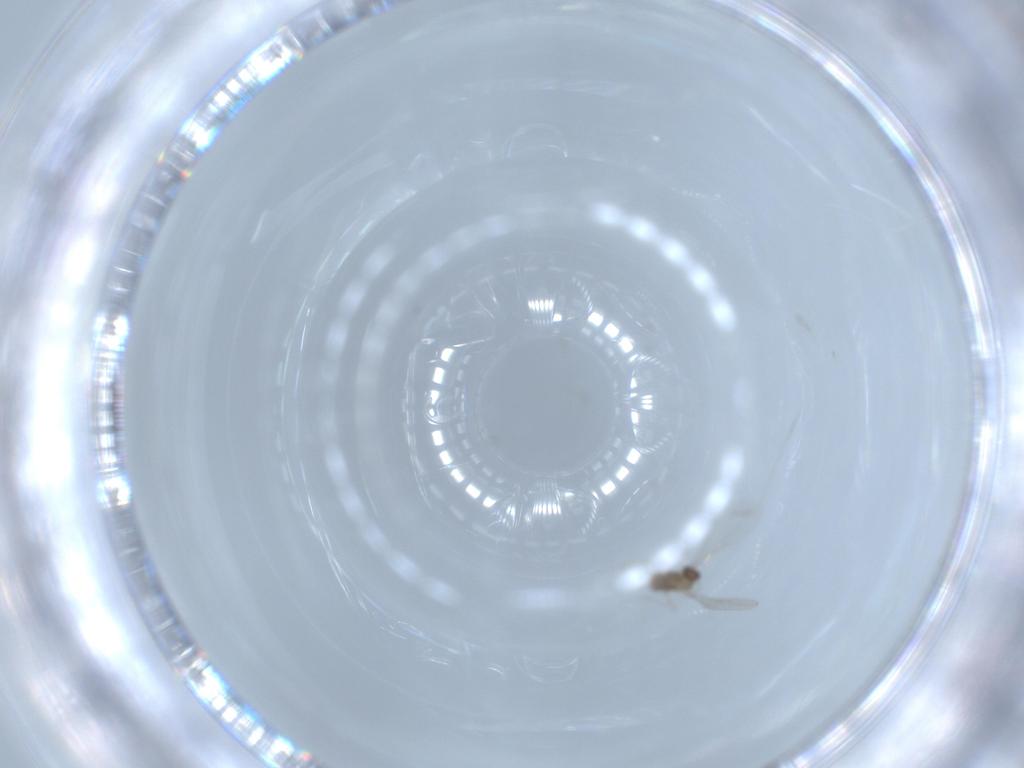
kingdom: Animalia
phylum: Arthropoda
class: Insecta
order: Diptera
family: Cecidomyiidae
